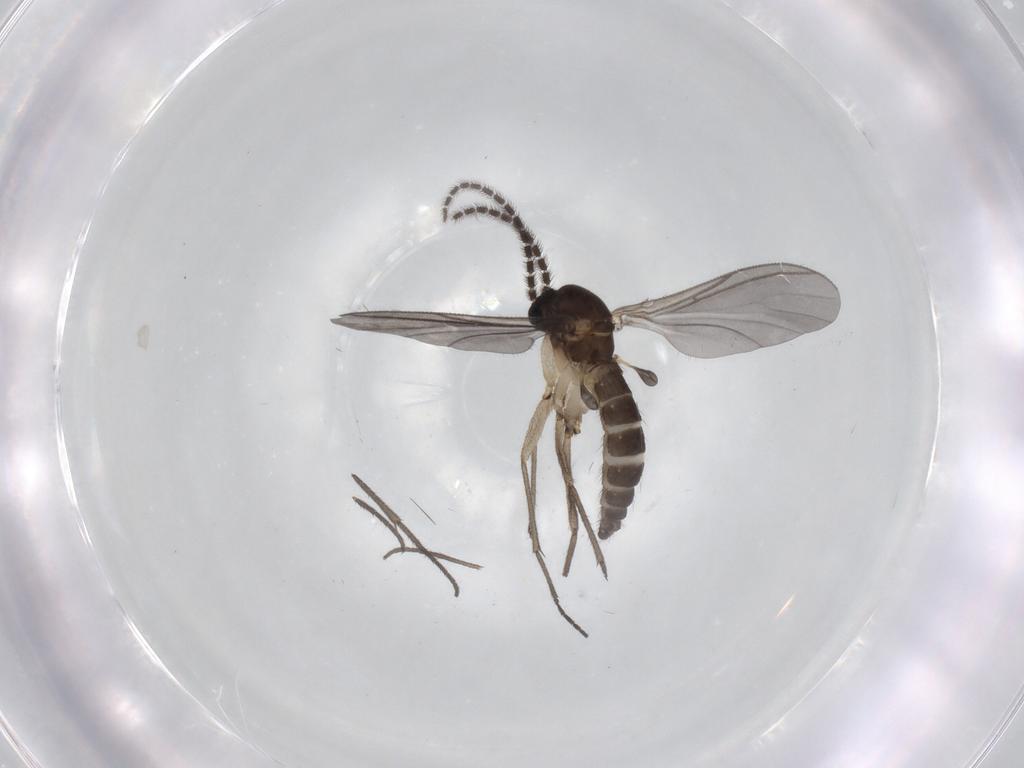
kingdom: Animalia
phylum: Arthropoda
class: Insecta
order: Diptera
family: Sciaridae
